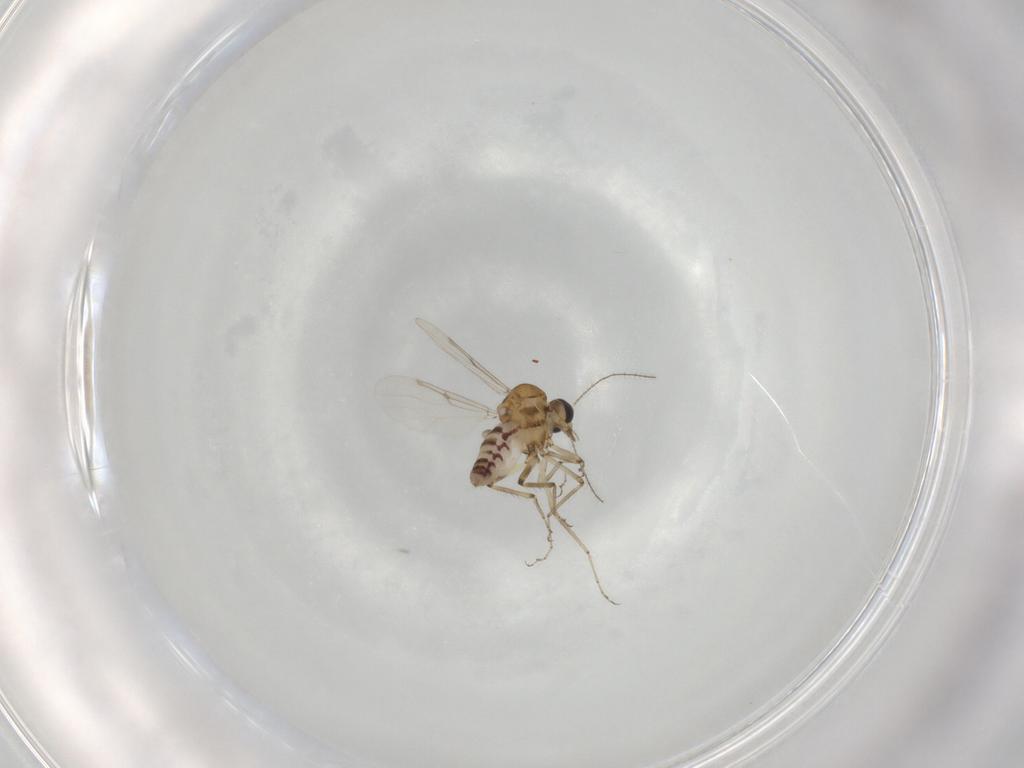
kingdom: Animalia
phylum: Arthropoda
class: Insecta
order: Diptera
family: Ceratopogonidae
